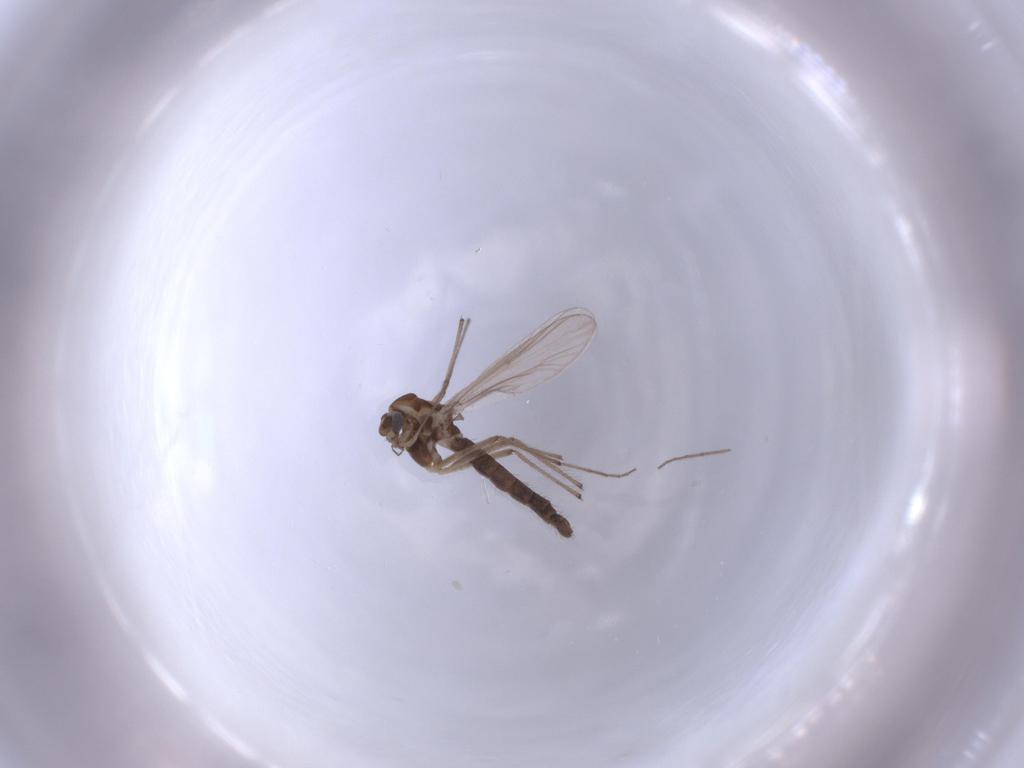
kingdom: Animalia
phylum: Arthropoda
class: Insecta
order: Diptera
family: Chironomidae
